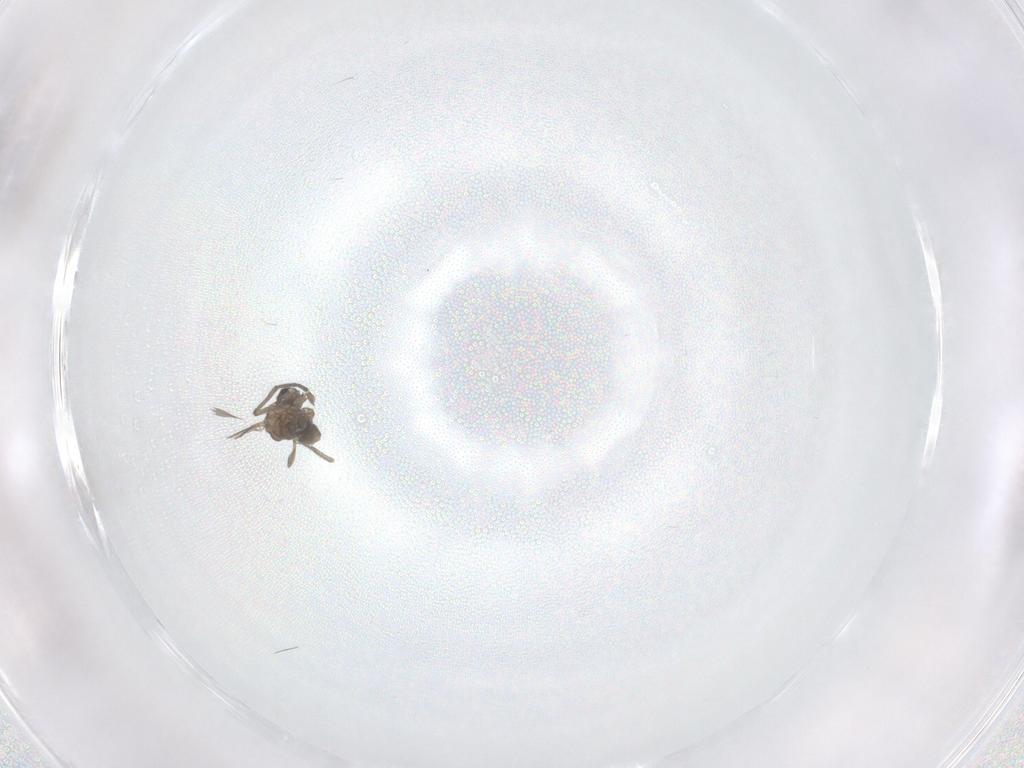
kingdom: Animalia
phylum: Arthropoda
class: Insecta
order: Diptera
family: Sciaridae
